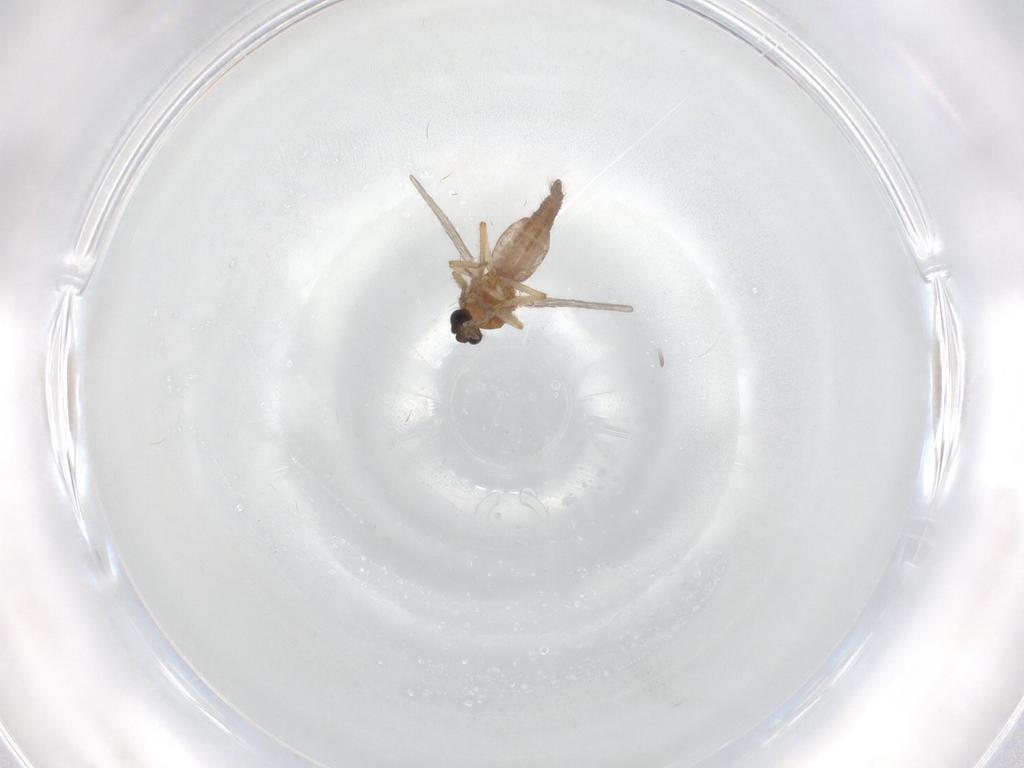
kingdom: Animalia
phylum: Arthropoda
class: Insecta
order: Diptera
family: Ceratopogonidae
